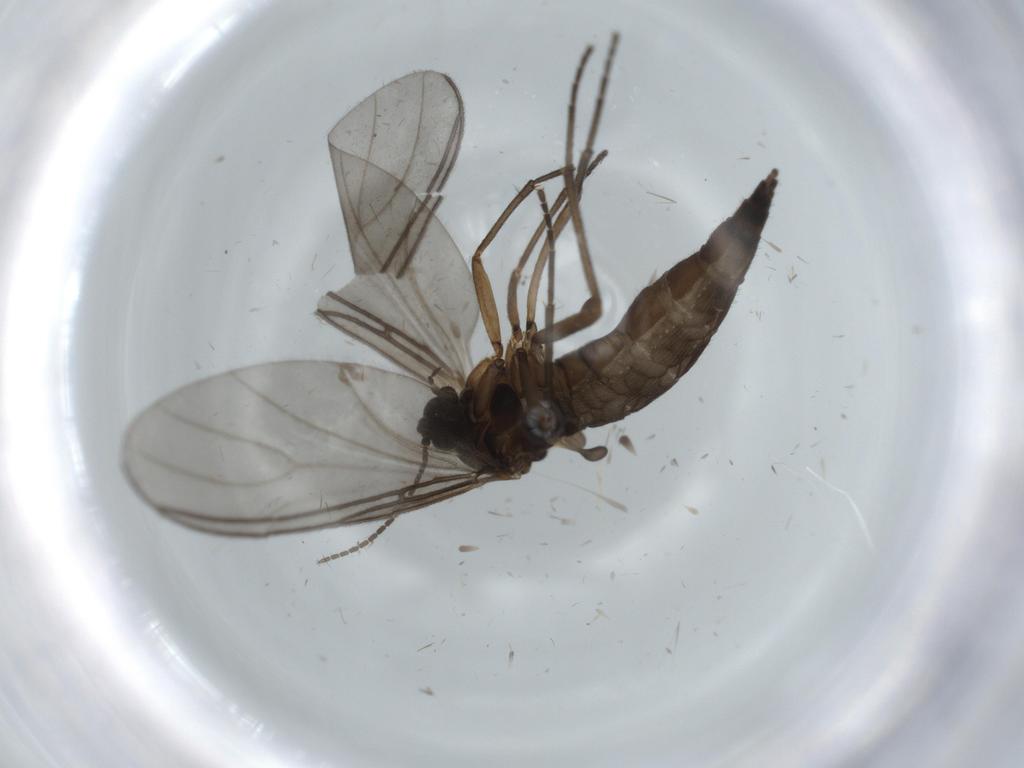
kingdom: Animalia
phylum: Arthropoda
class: Insecta
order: Diptera
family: Sciaridae
